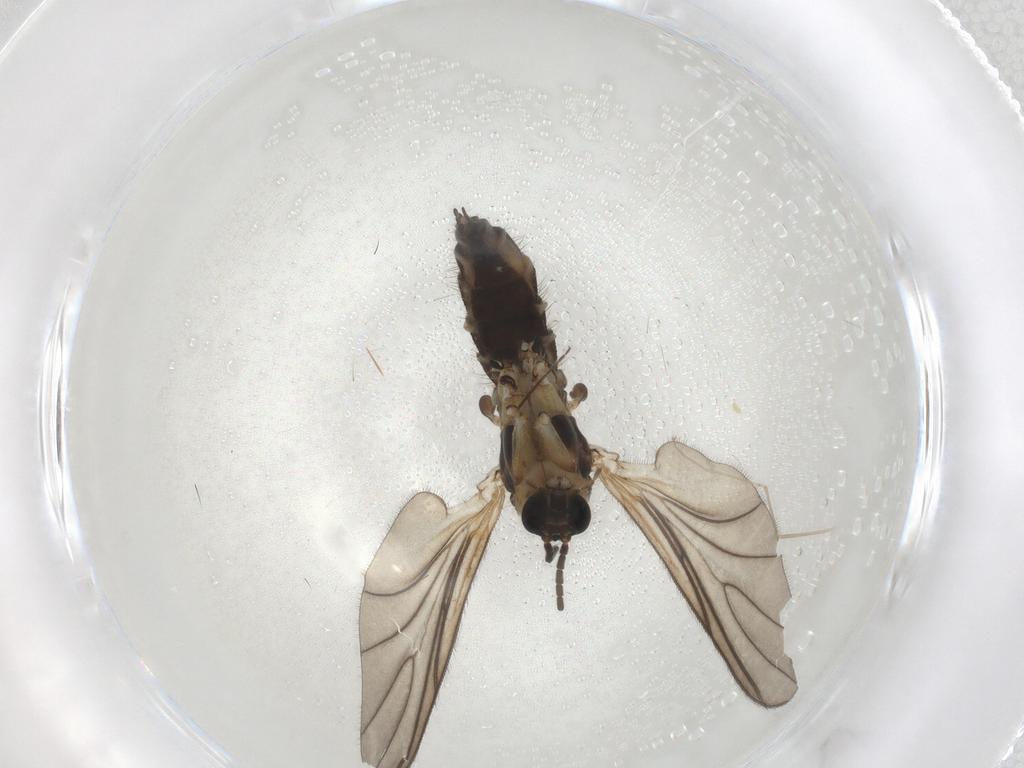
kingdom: Animalia
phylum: Arthropoda
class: Insecta
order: Diptera
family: Sciaridae
